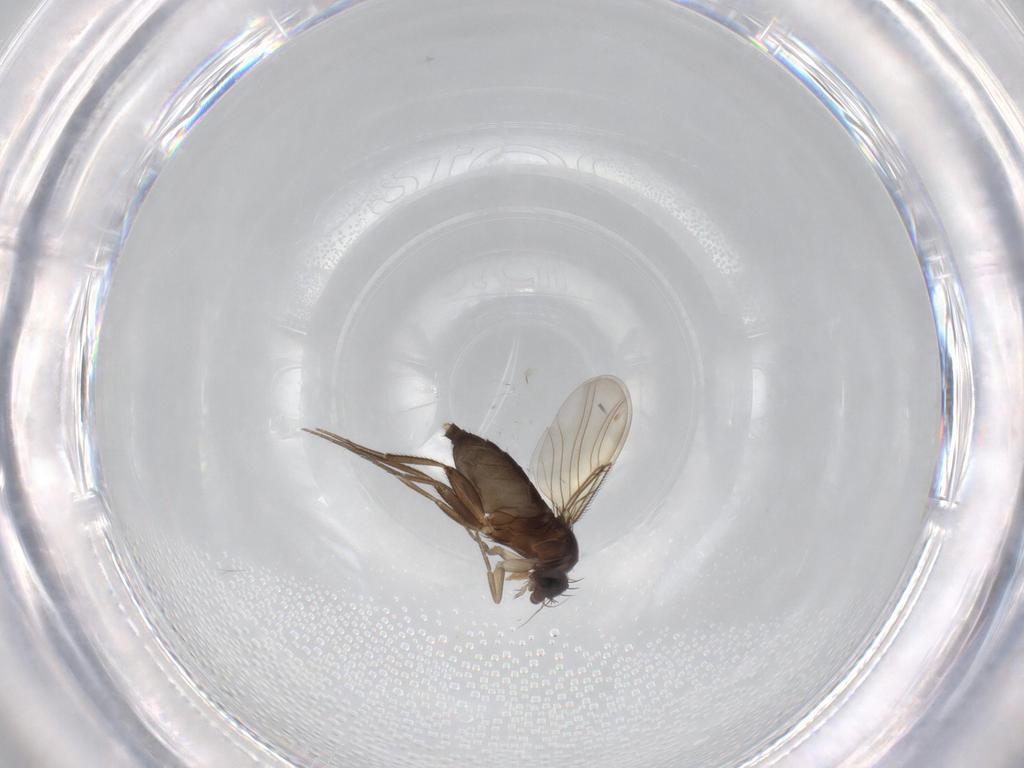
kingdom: Animalia
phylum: Arthropoda
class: Insecta
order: Diptera
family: Phoridae
